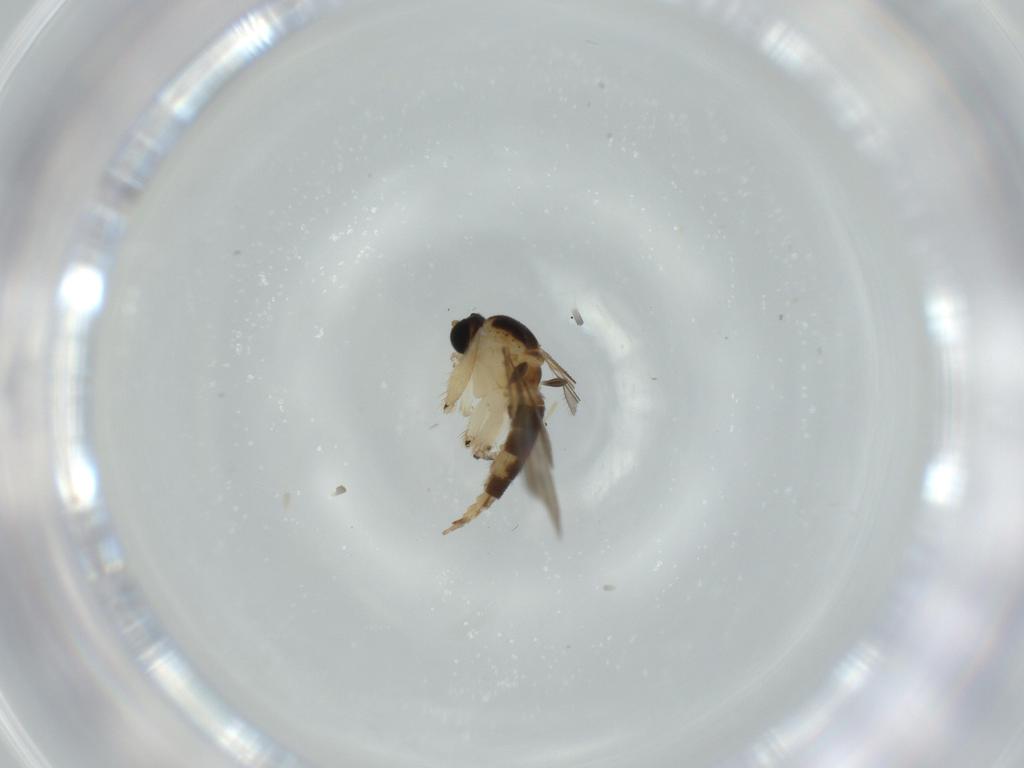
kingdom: Animalia
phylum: Arthropoda
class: Insecta
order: Diptera
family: Sciaridae
